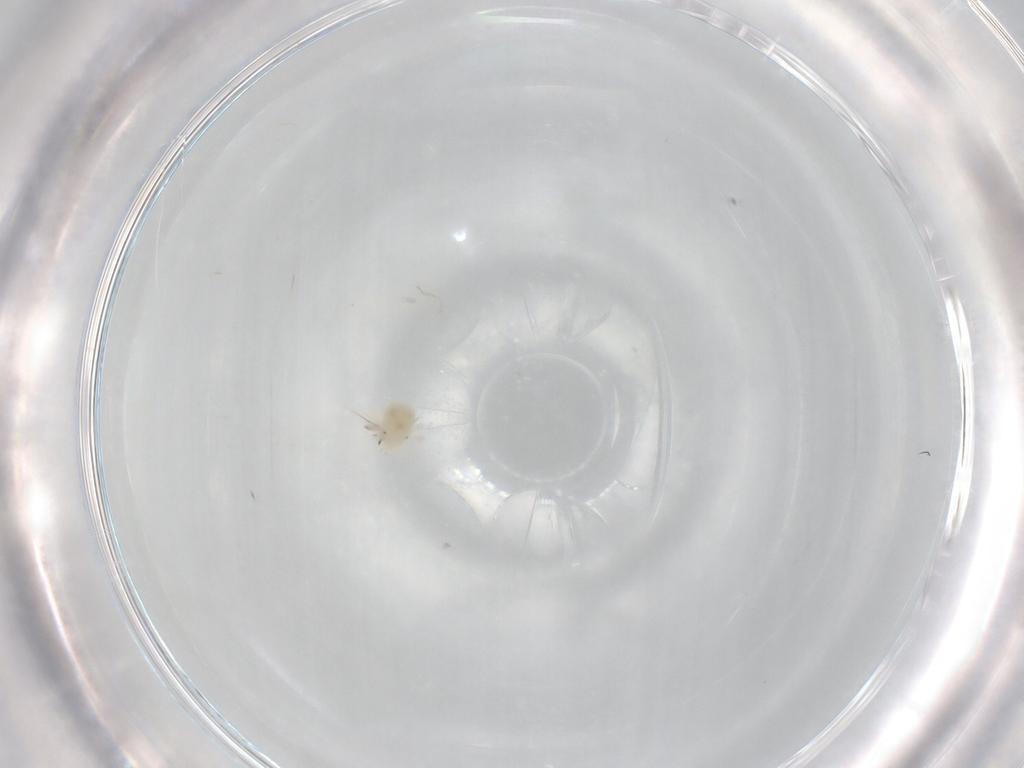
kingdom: Animalia
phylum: Arthropoda
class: Arachnida
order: Trombidiformes
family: Anystidae
